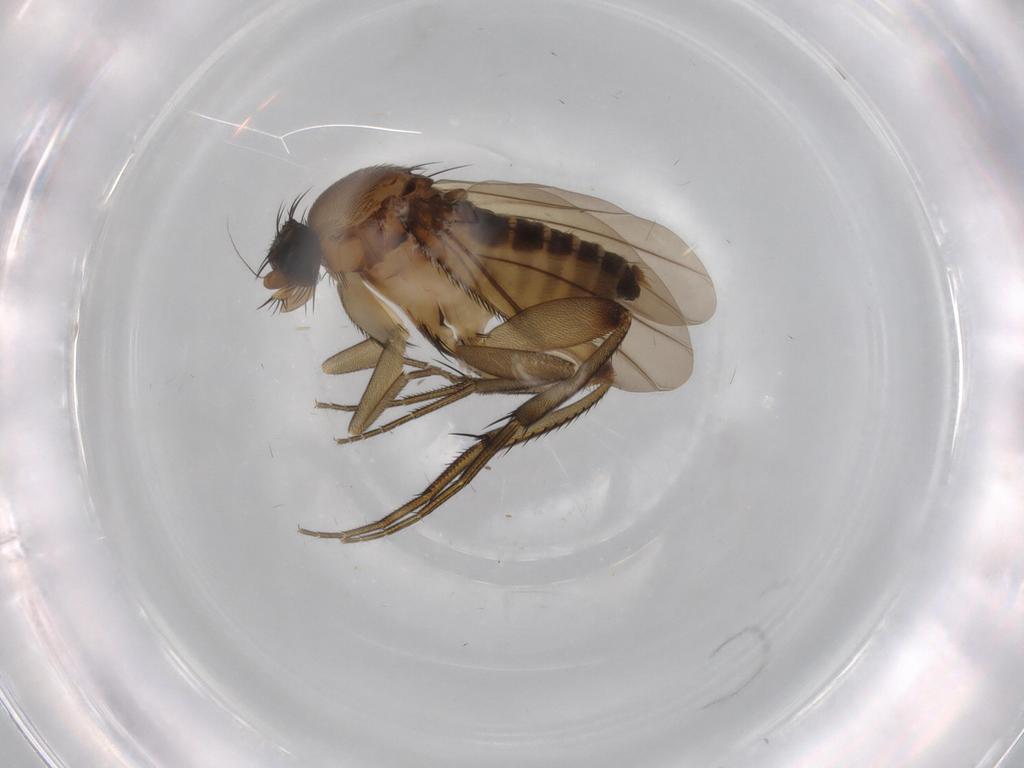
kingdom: Animalia
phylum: Arthropoda
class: Insecta
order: Diptera
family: Phoridae
